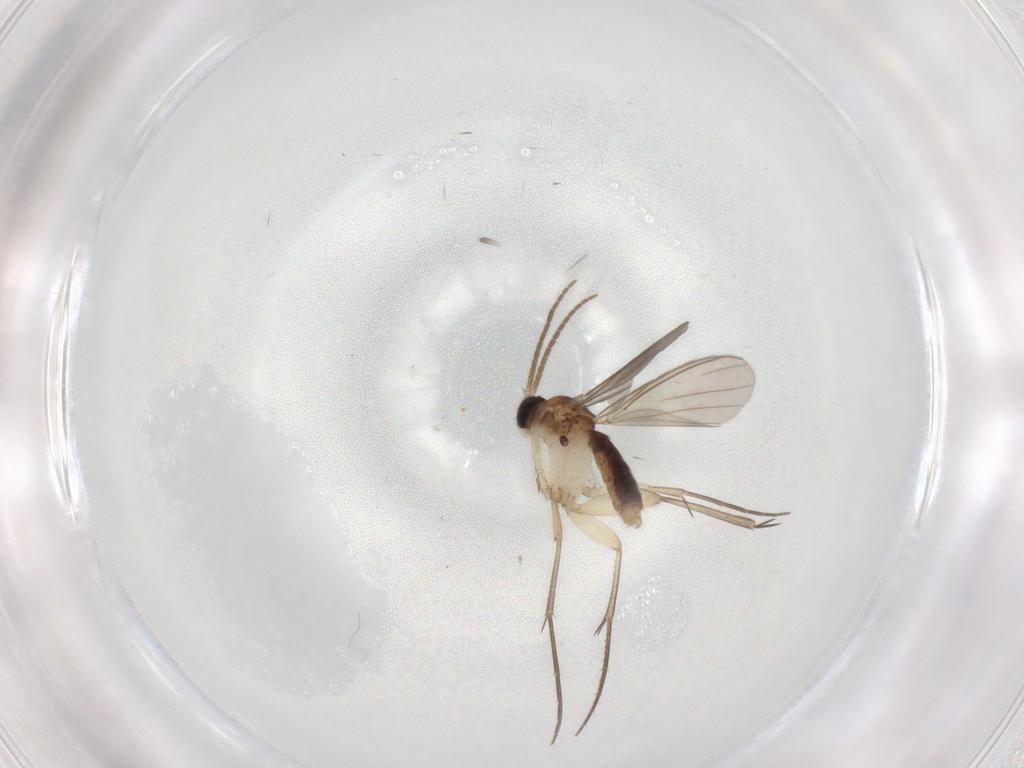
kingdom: Animalia
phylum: Arthropoda
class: Insecta
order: Diptera
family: Mycetophilidae
